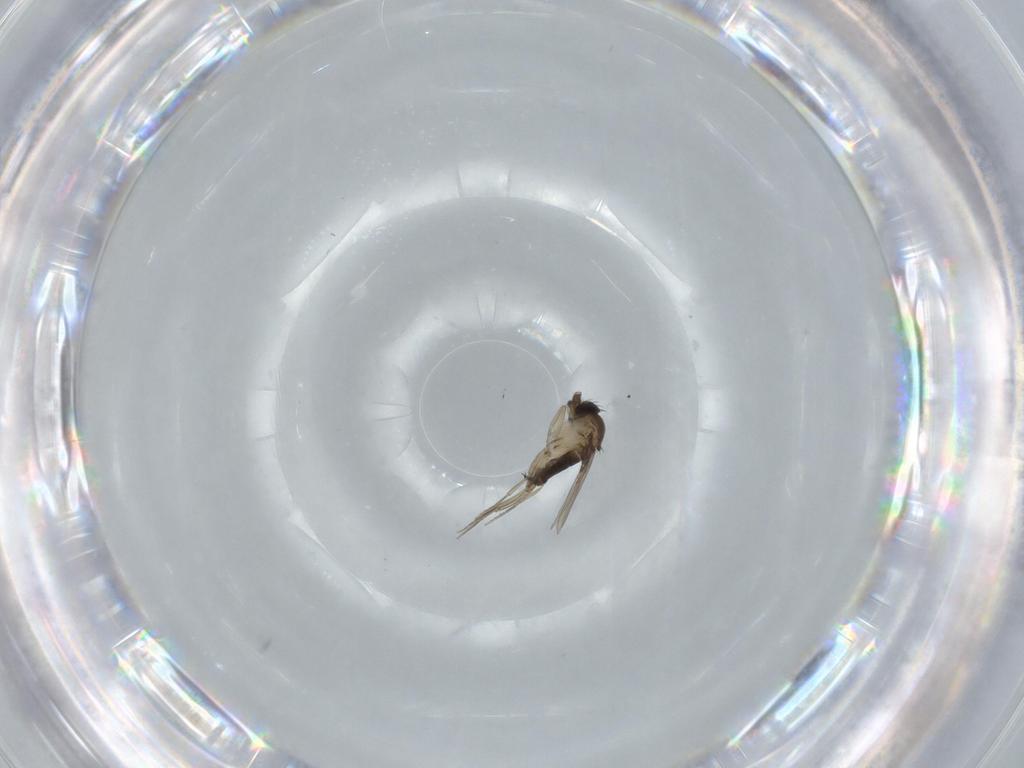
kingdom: Animalia
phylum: Arthropoda
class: Insecta
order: Diptera
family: Phoridae
